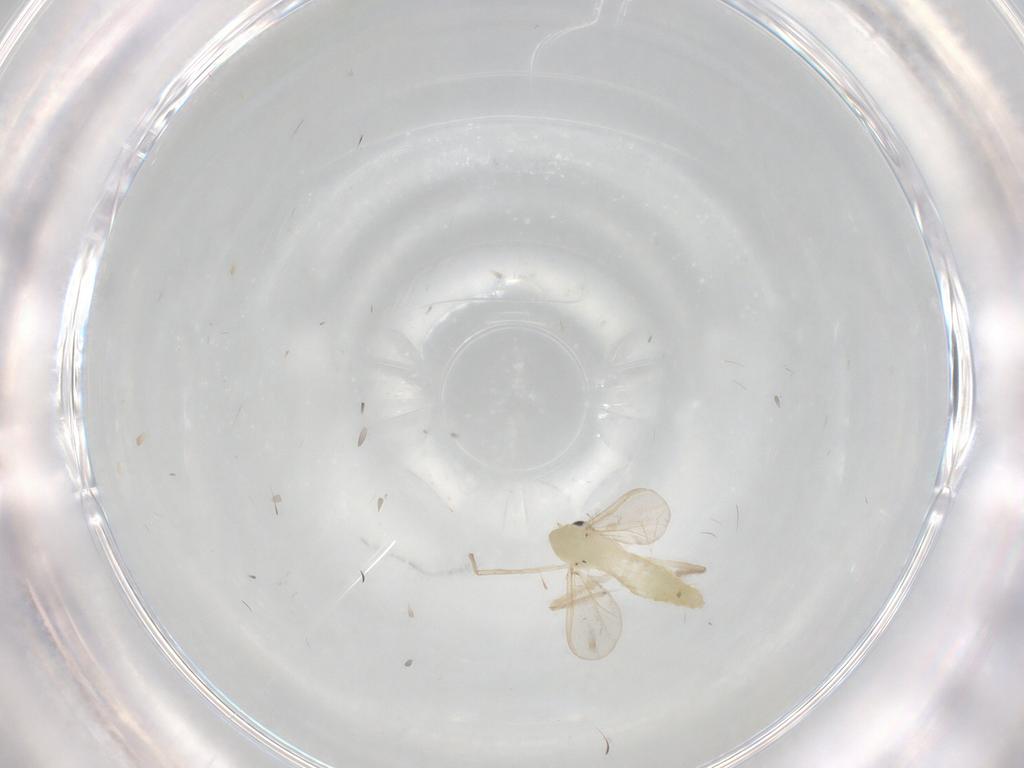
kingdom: Animalia
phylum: Arthropoda
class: Insecta
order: Diptera
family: Chironomidae
